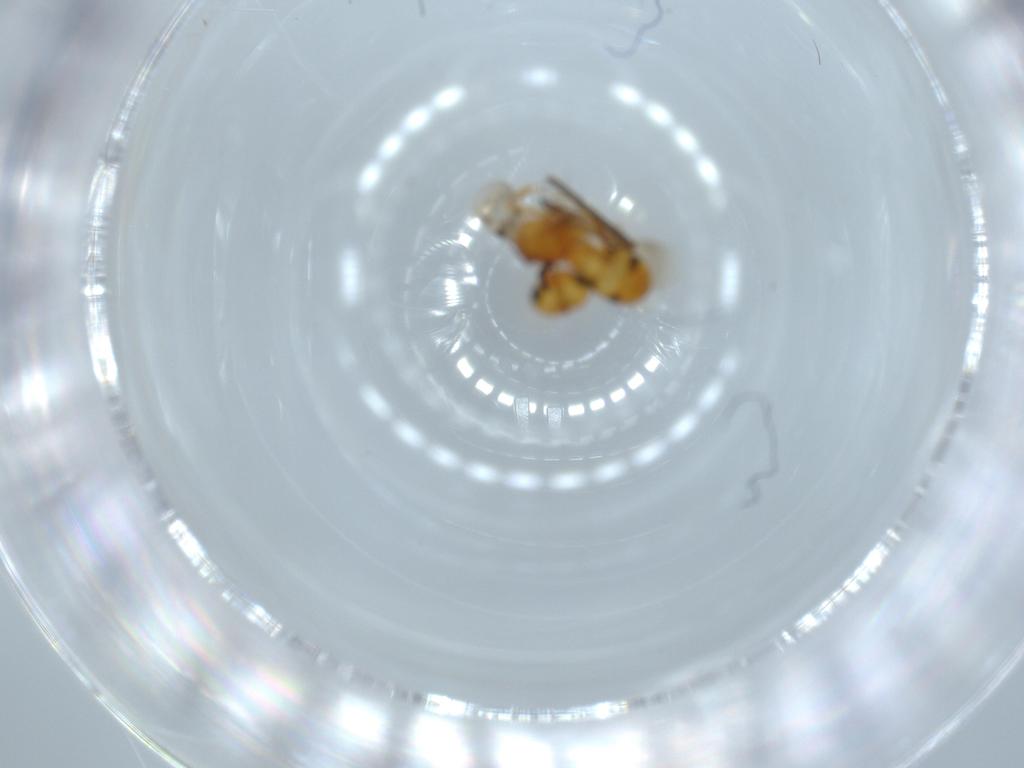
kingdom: Animalia
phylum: Arthropoda
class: Insecta
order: Hymenoptera
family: Scelionidae
